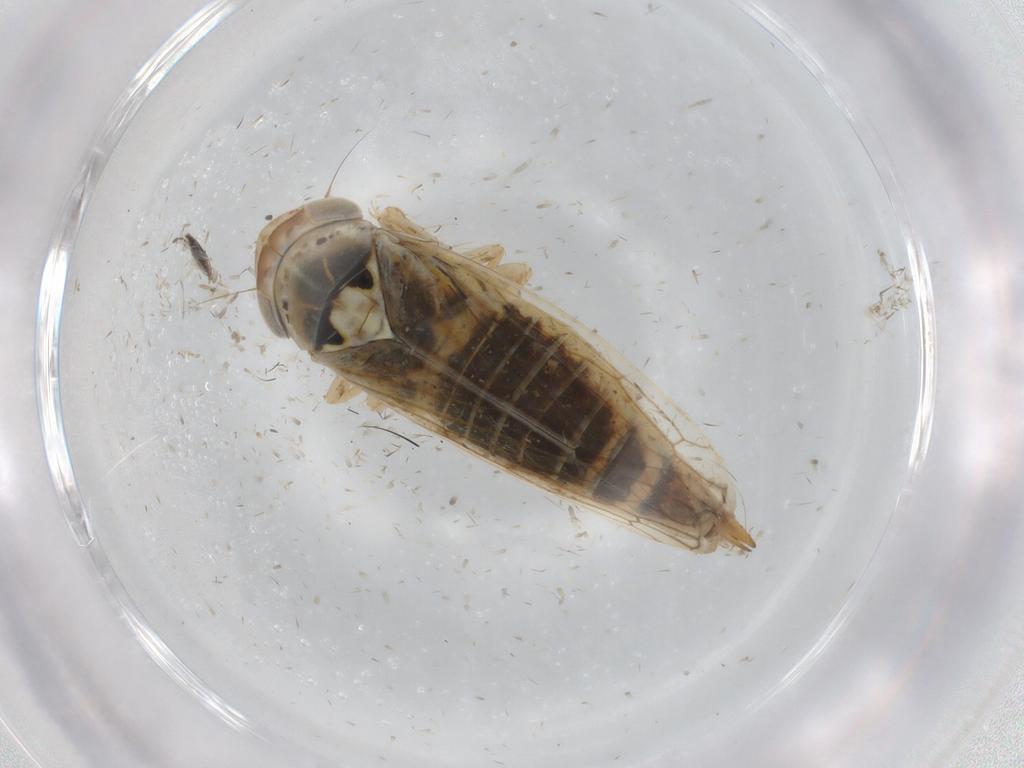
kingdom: Animalia
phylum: Arthropoda
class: Insecta
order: Hemiptera
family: Cicadellidae
